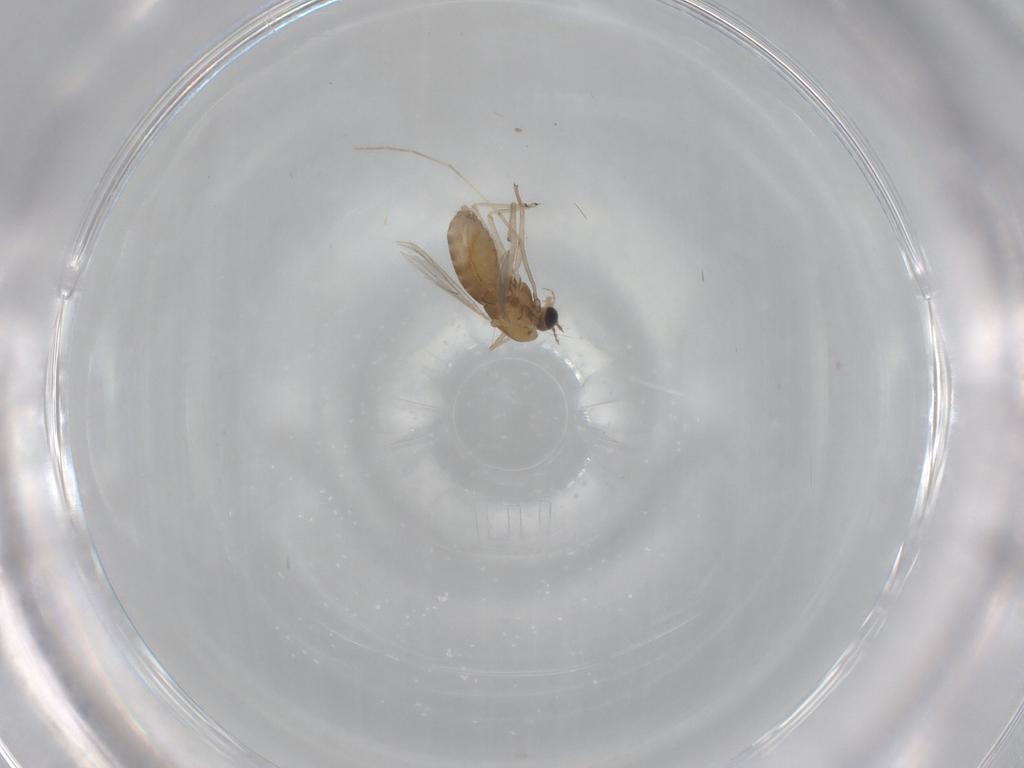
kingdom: Animalia
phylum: Arthropoda
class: Insecta
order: Diptera
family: Chironomidae
